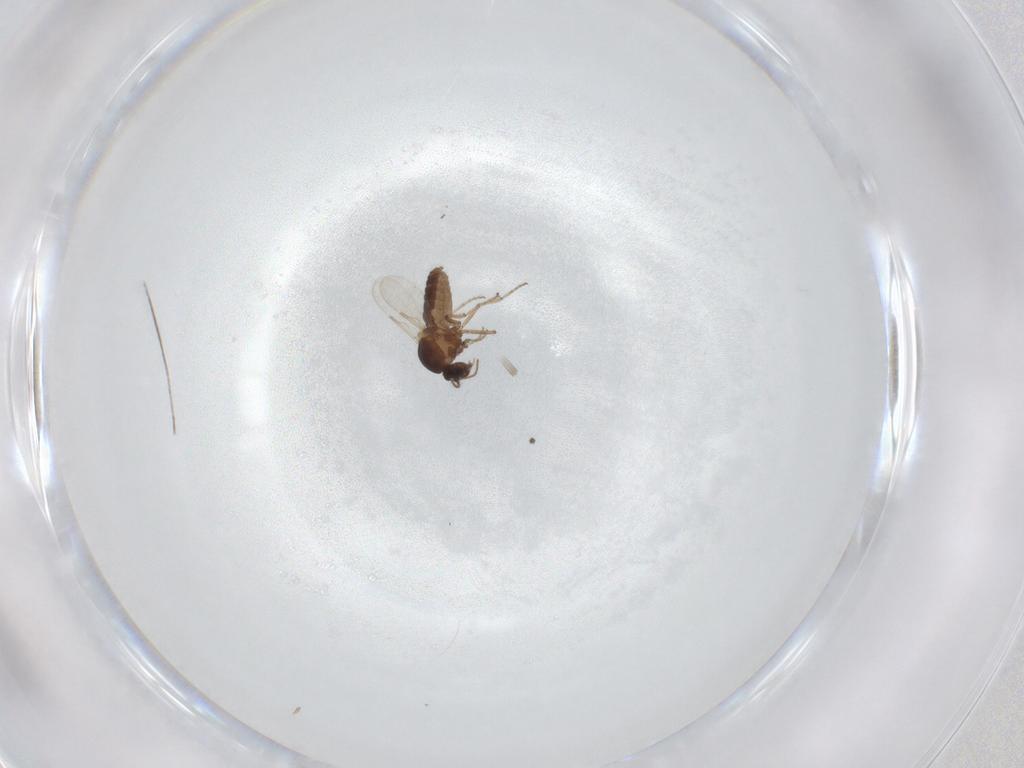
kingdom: Animalia
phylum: Arthropoda
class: Insecta
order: Diptera
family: Ceratopogonidae
